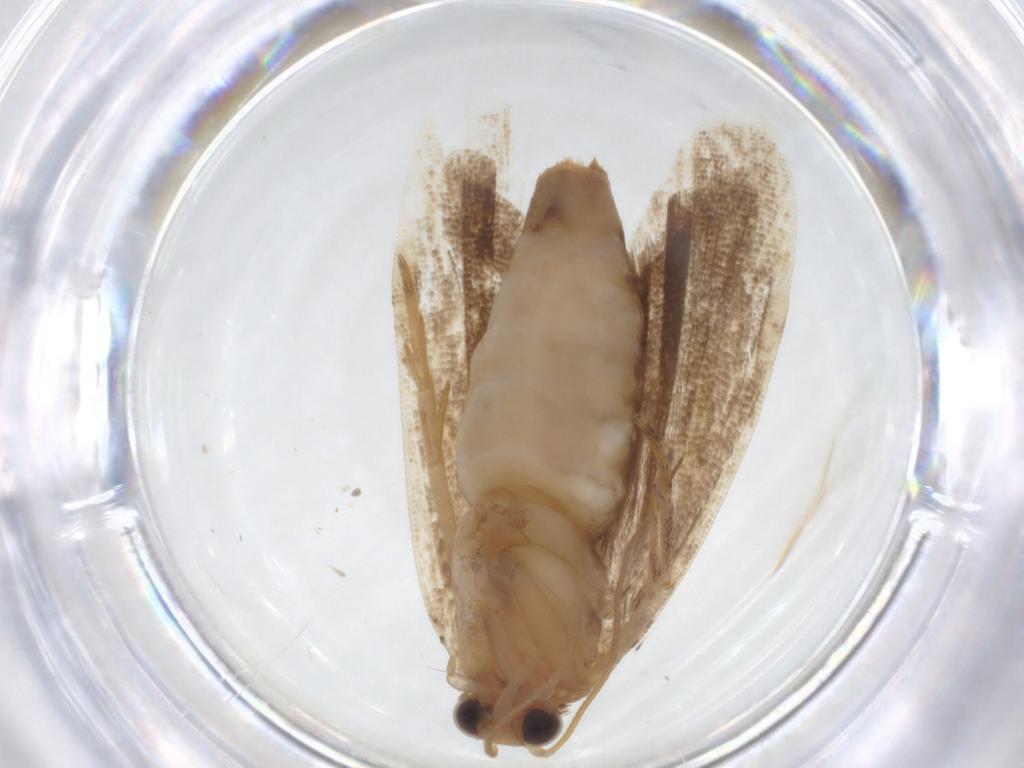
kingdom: Animalia
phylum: Arthropoda
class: Insecta
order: Lepidoptera
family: Tortricidae
